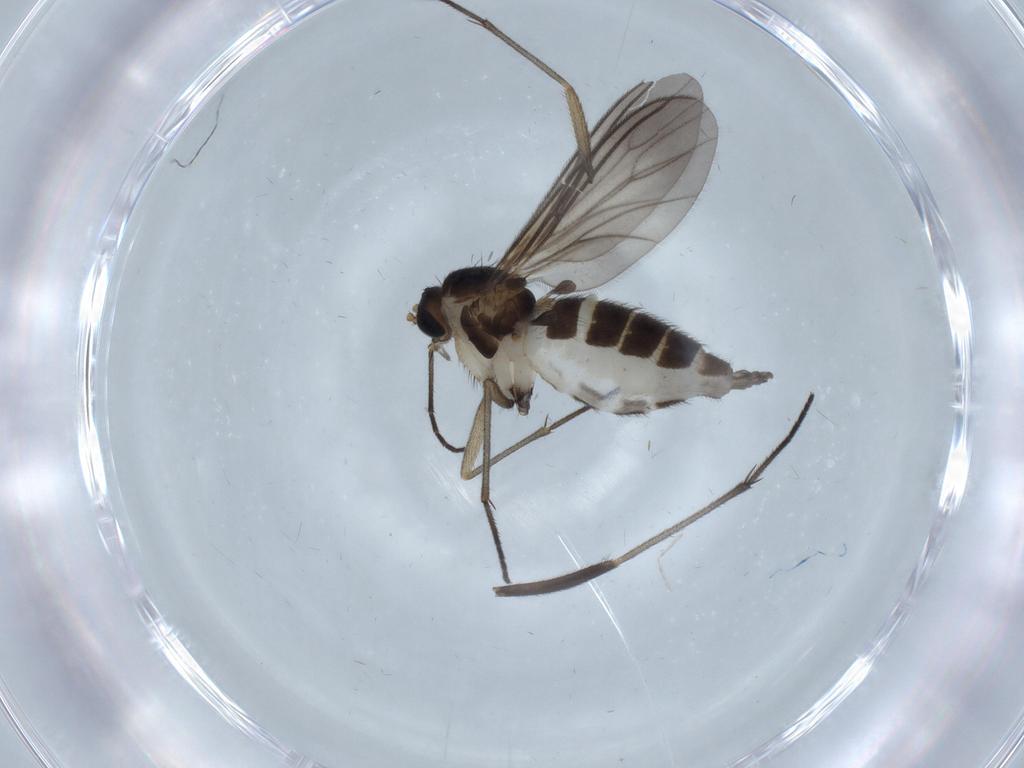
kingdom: Animalia
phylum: Arthropoda
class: Insecta
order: Diptera
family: Sciaridae
